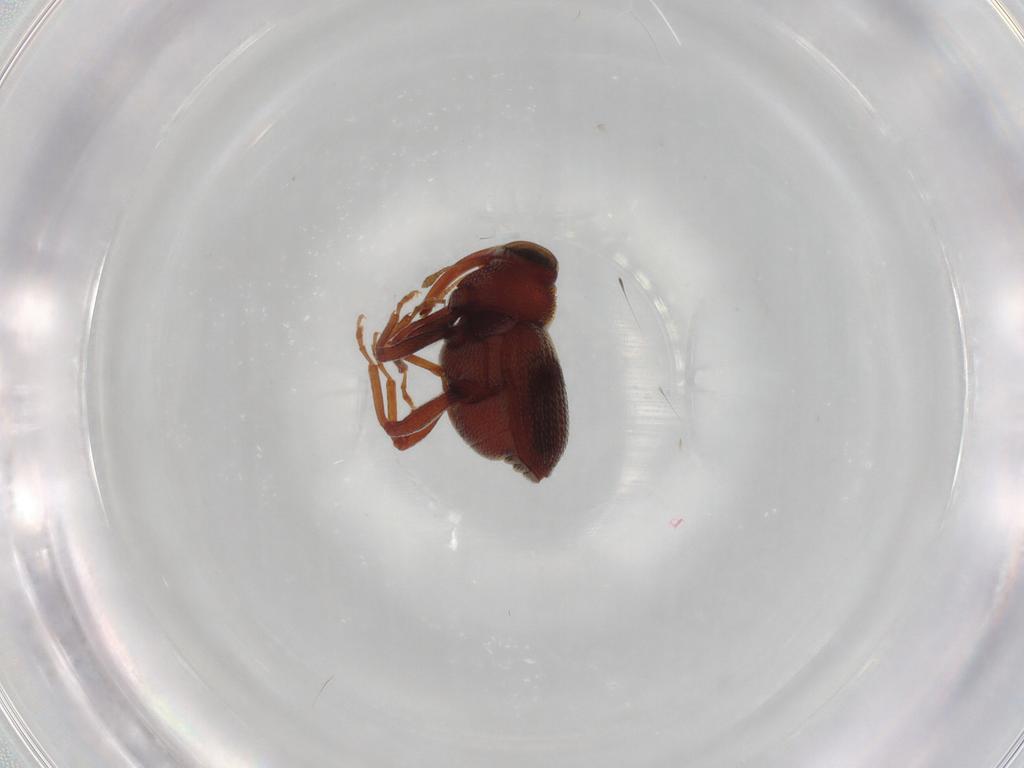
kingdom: Animalia
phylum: Arthropoda
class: Insecta
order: Coleoptera
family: Curculionidae
